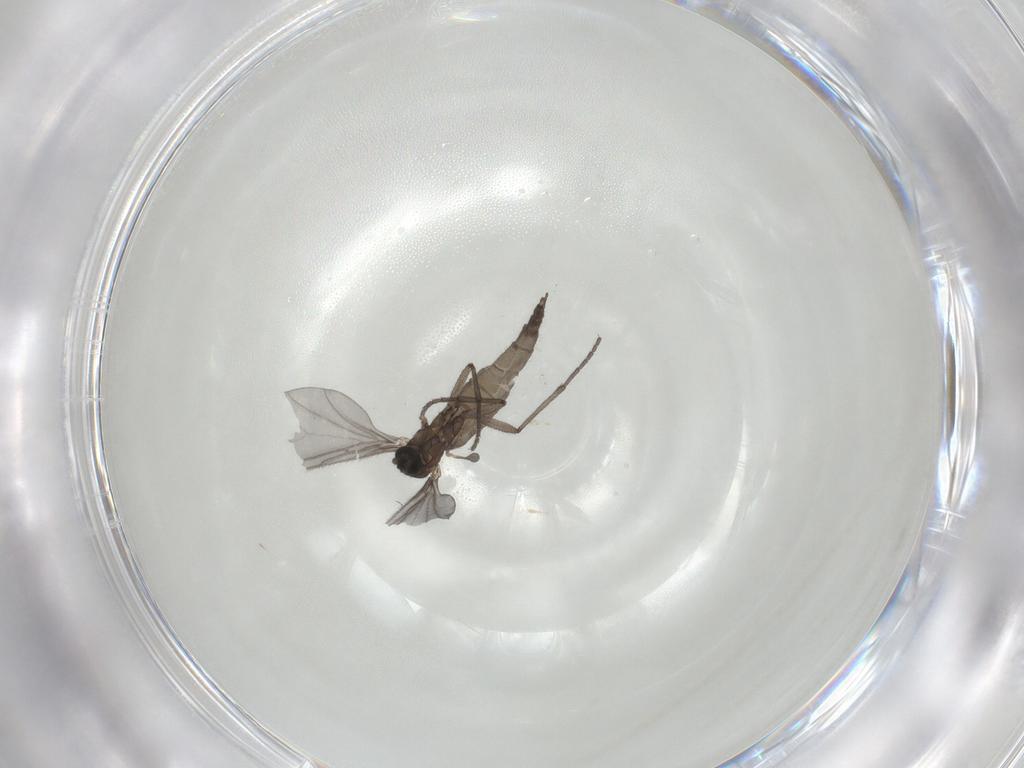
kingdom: Animalia
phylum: Arthropoda
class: Insecta
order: Diptera
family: Sciaridae
